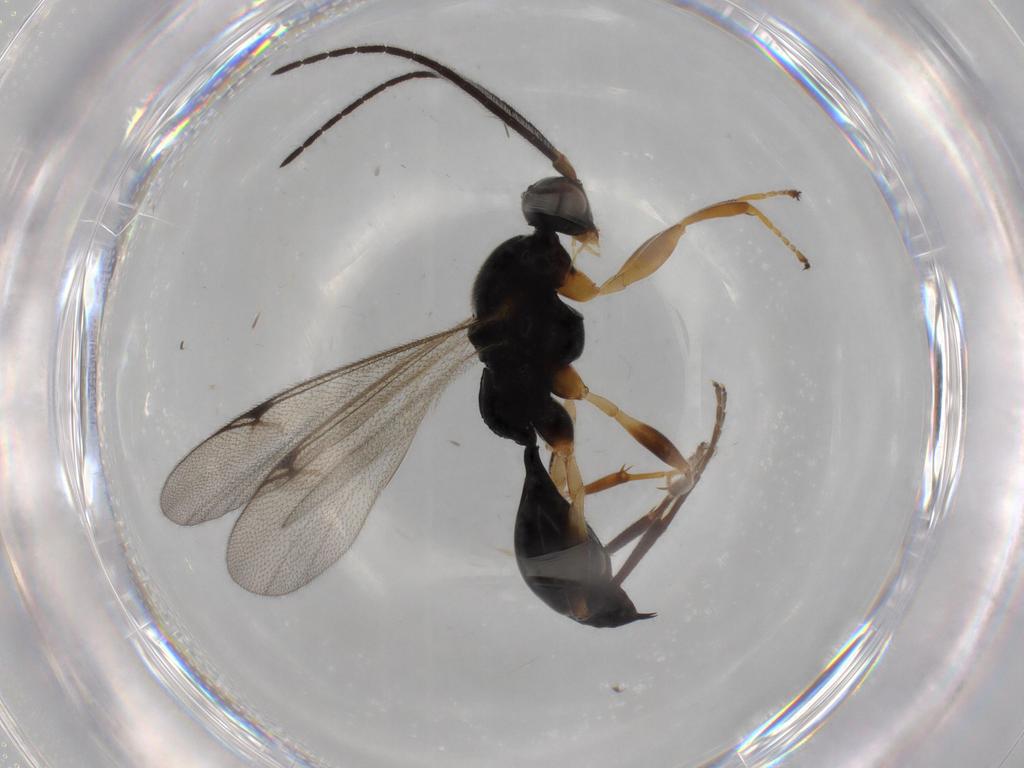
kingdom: Animalia
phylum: Arthropoda
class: Insecta
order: Hymenoptera
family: Proctotrupidae
